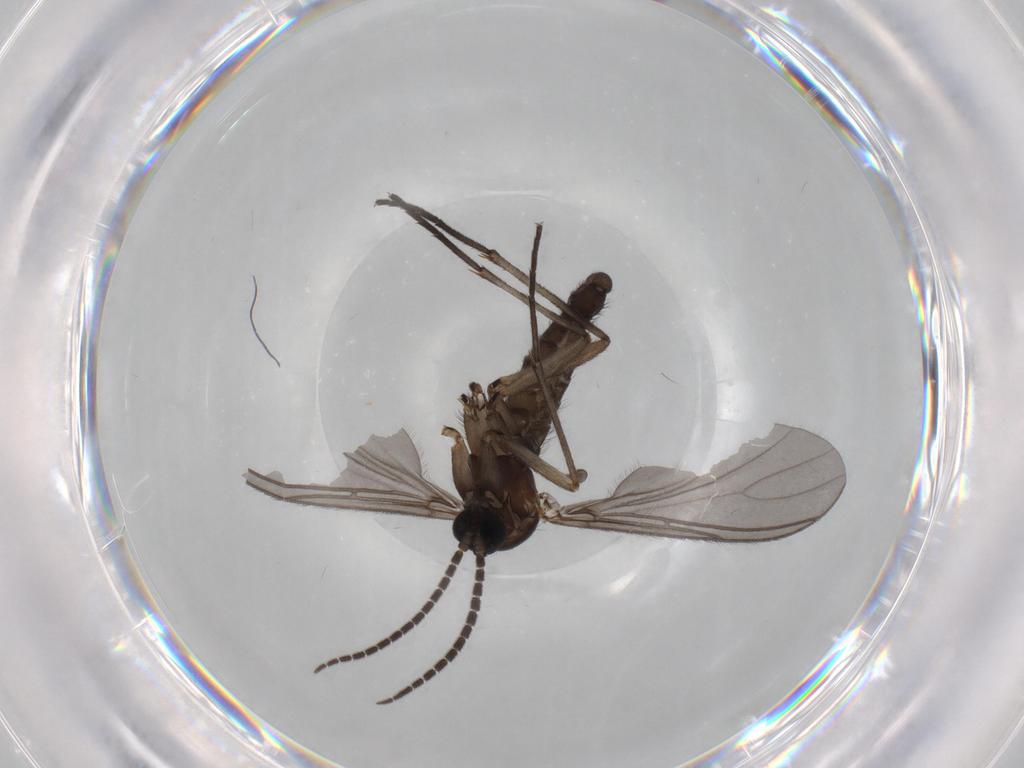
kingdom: Animalia
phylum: Arthropoda
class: Insecta
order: Diptera
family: Sciaridae
